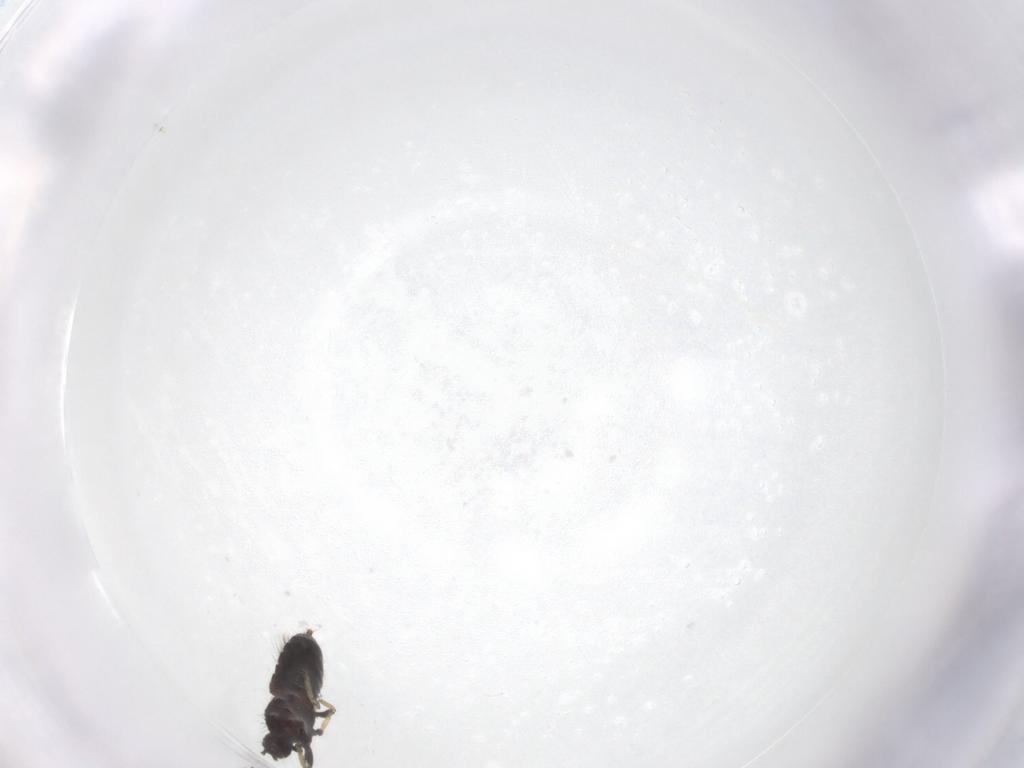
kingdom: Animalia
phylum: Arthropoda
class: Insecta
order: Thysanoptera
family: Phlaeothripidae
